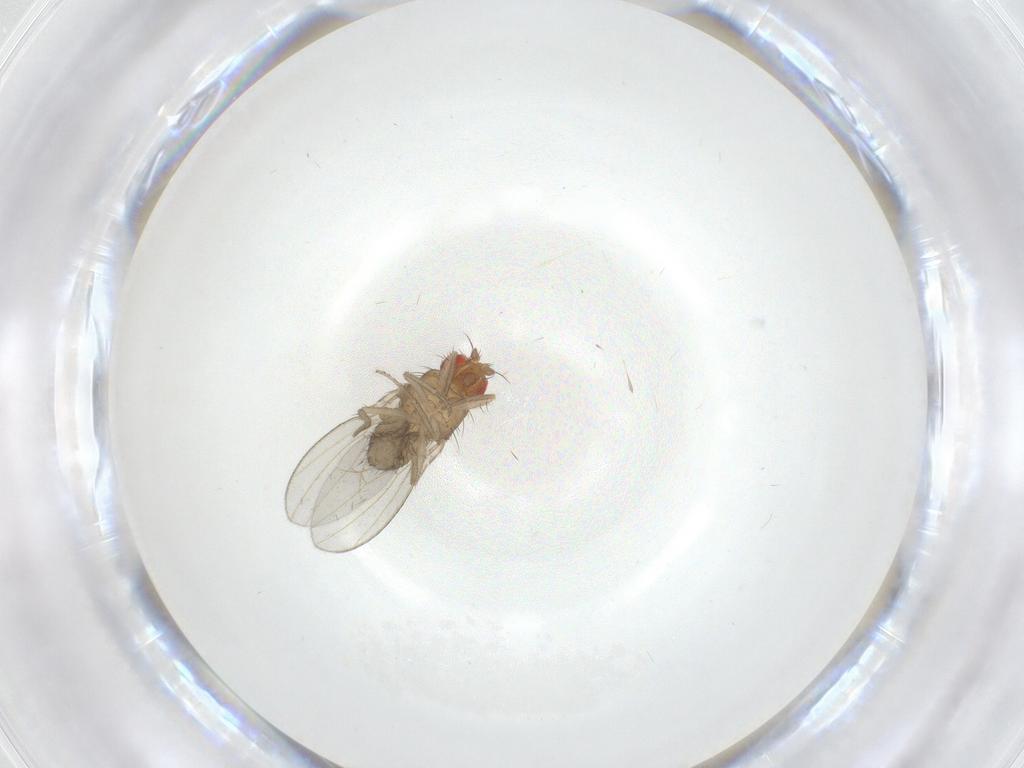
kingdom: Animalia
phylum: Arthropoda
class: Insecta
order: Diptera
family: Drosophilidae
